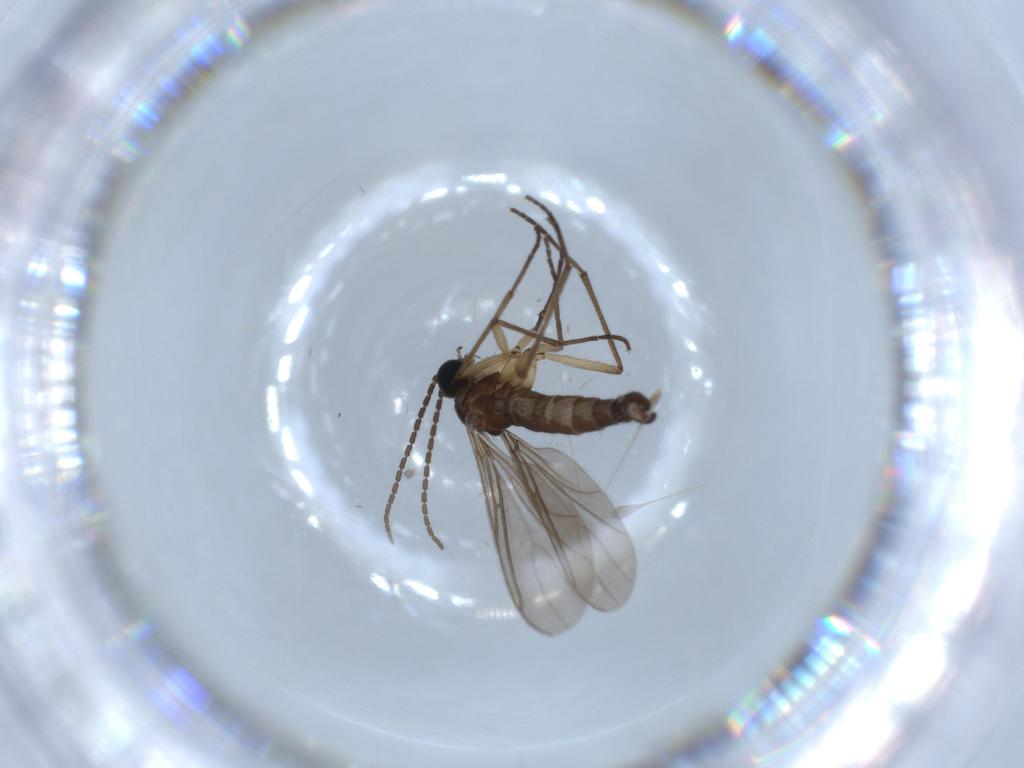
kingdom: Animalia
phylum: Arthropoda
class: Insecta
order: Diptera
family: Sciaridae
